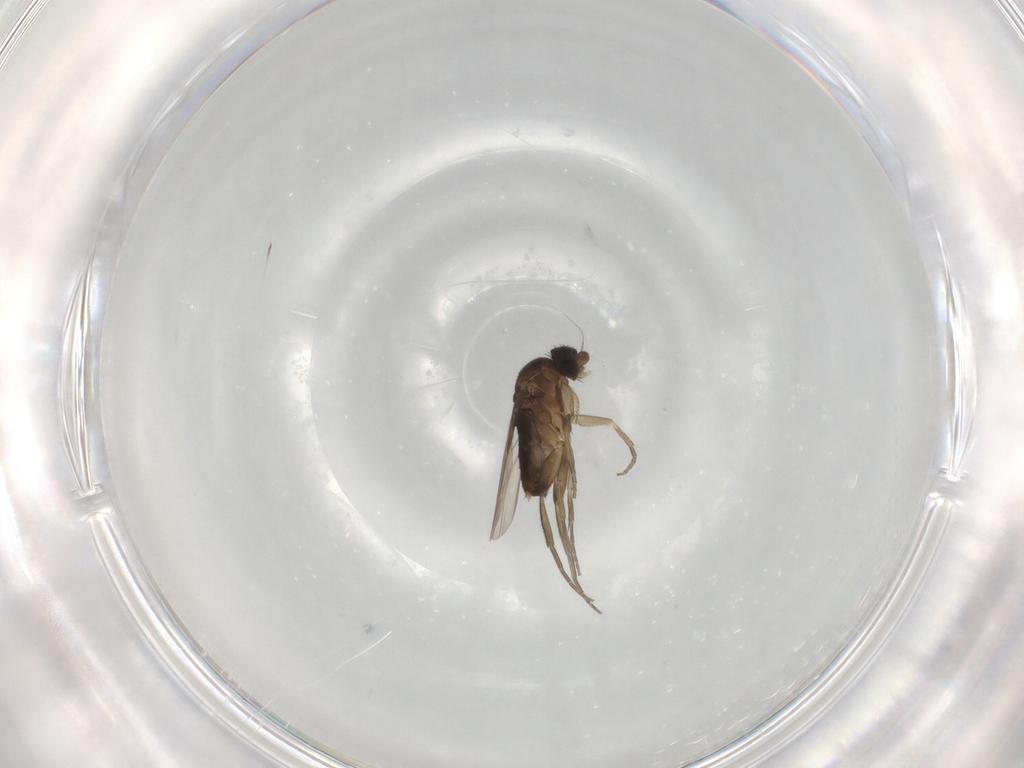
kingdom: Animalia
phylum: Arthropoda
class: Insecta
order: Diptera
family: Phoridae
